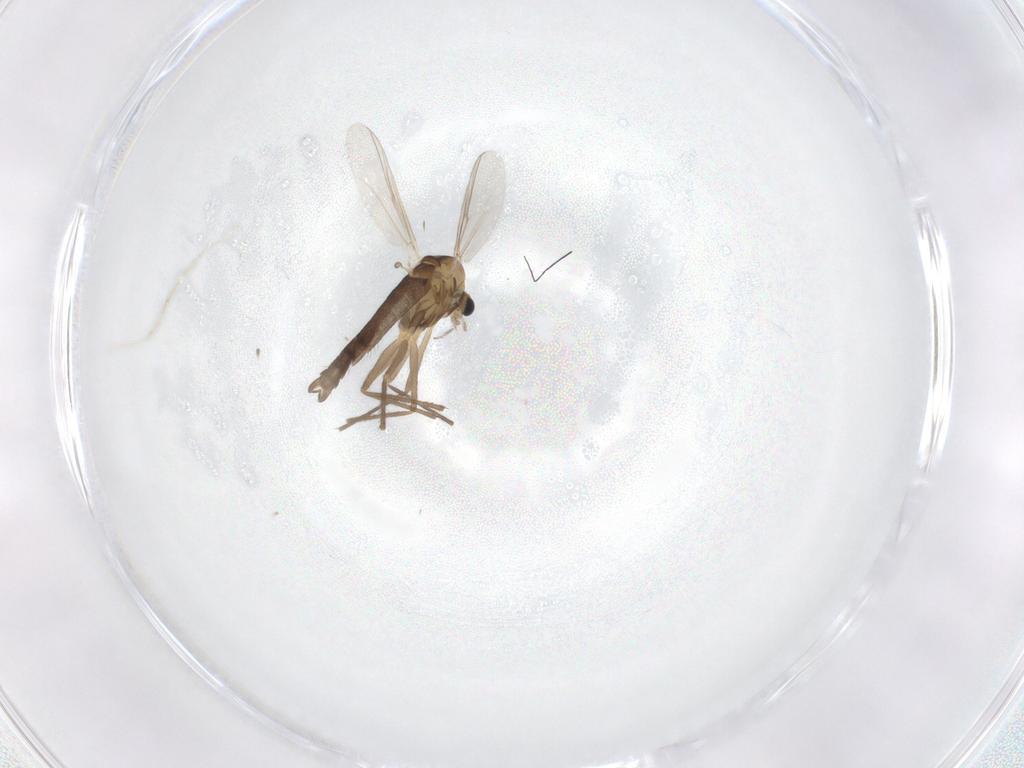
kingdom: Animalia
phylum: Arthropoda
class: Insecta
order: Diptera
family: Chironomidae
